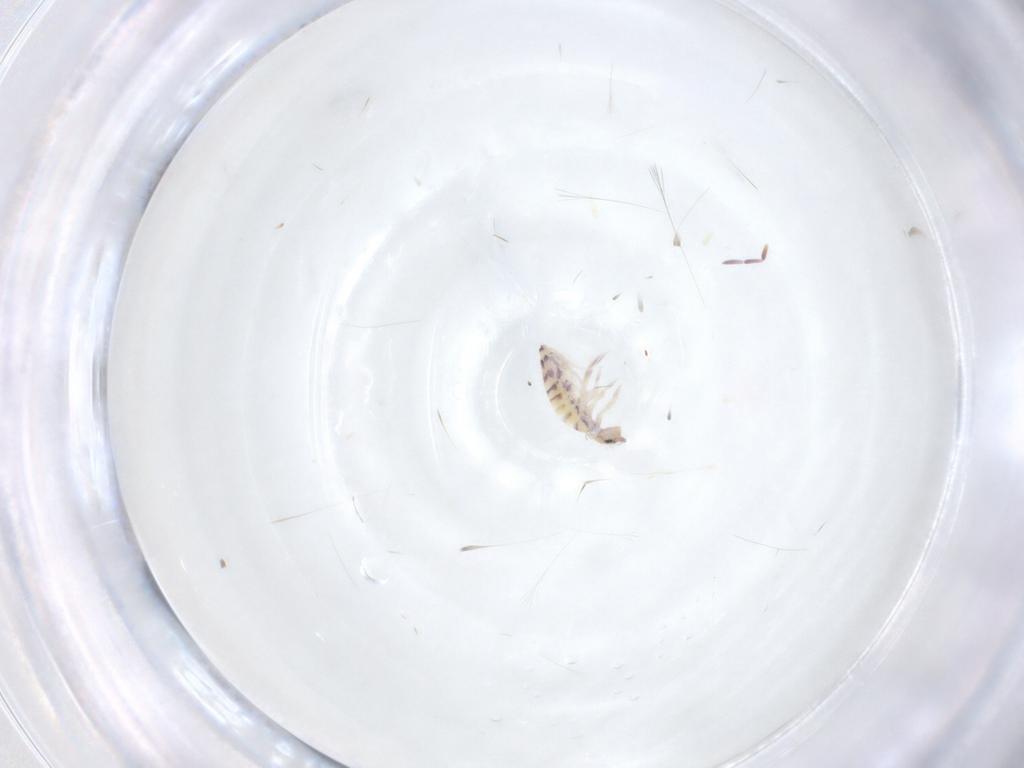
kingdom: Animalia
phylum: Arthropoda
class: Collembola
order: Entomobryomorpha
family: Entomobryidae
